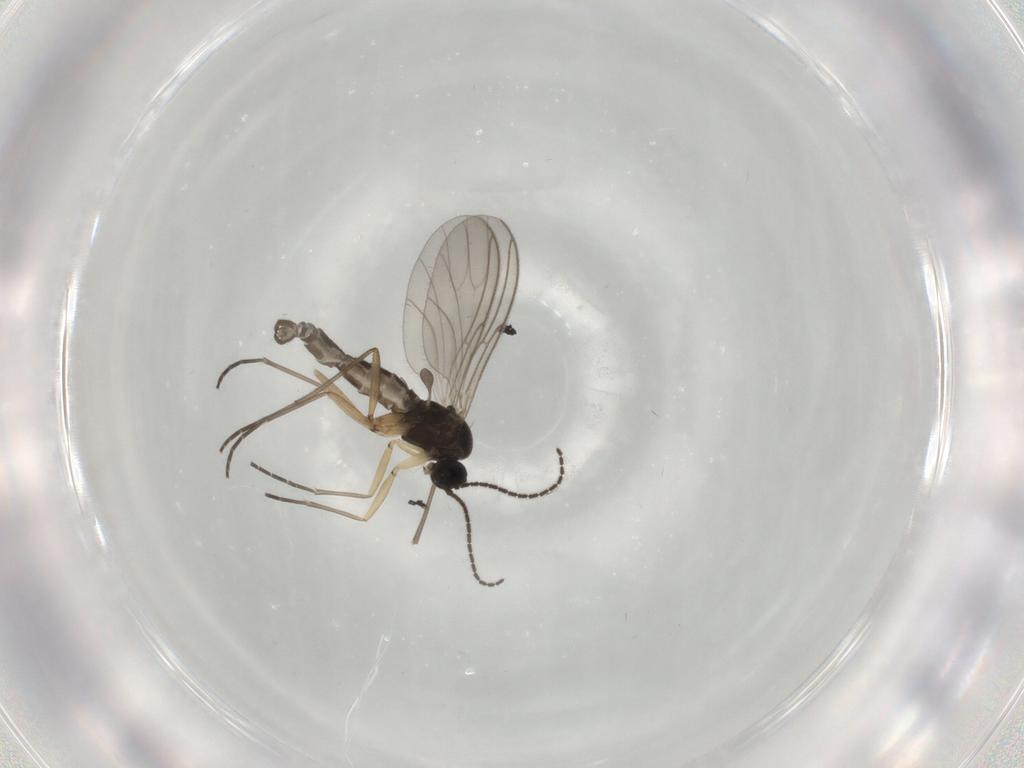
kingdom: Animalia
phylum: Arthropoda
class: Insecta
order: Diptera
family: Sciaridae
